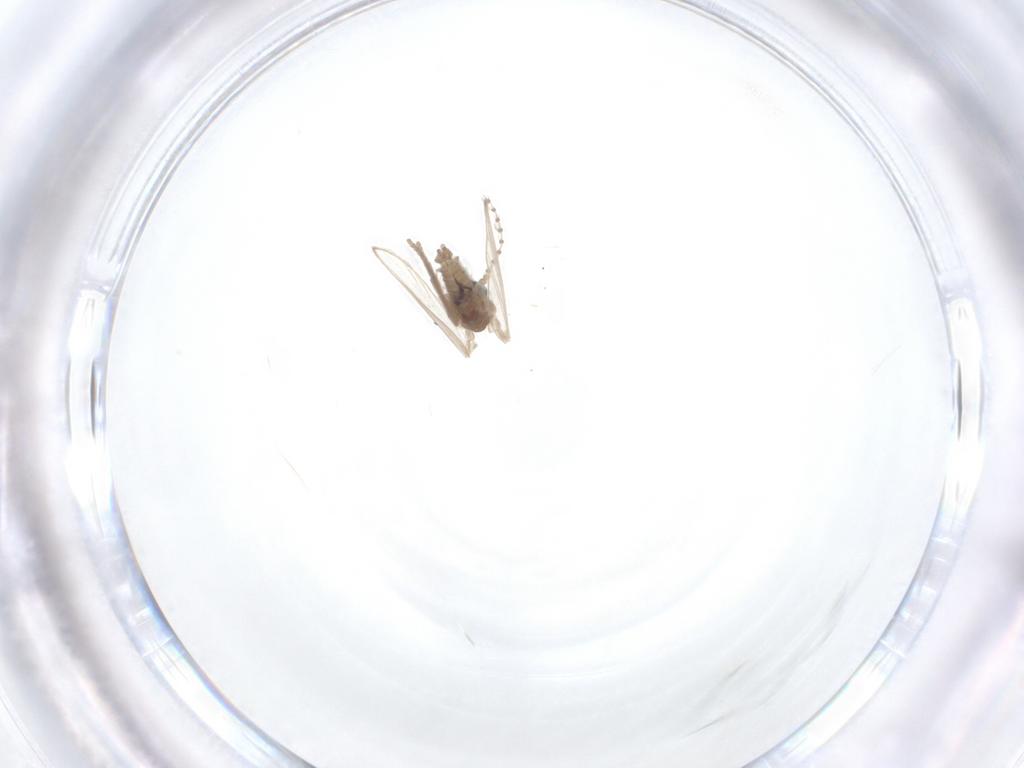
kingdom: Animalia
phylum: Arthropoda
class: Insecta
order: Diptera
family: Psychodidae
